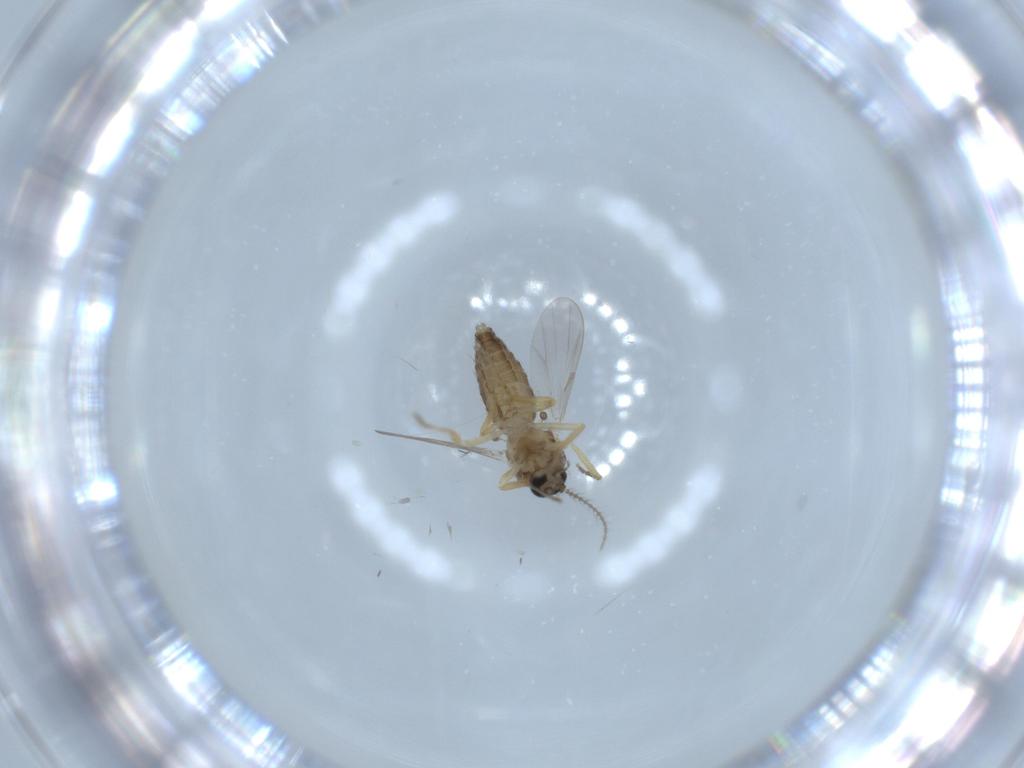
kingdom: Animalia
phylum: Arthropoda
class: Insecta
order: Diptera
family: Ceratopogonidae
